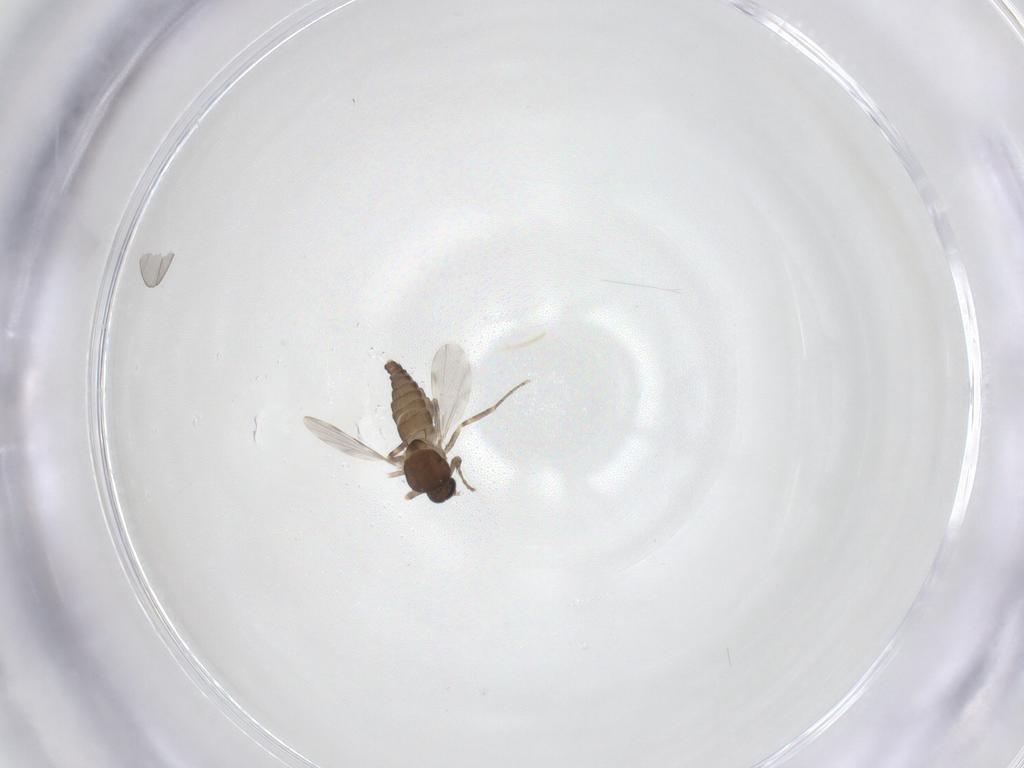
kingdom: Animalia
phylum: Arthropoda
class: Insecta
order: Diptera
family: Ceratopogonidae
